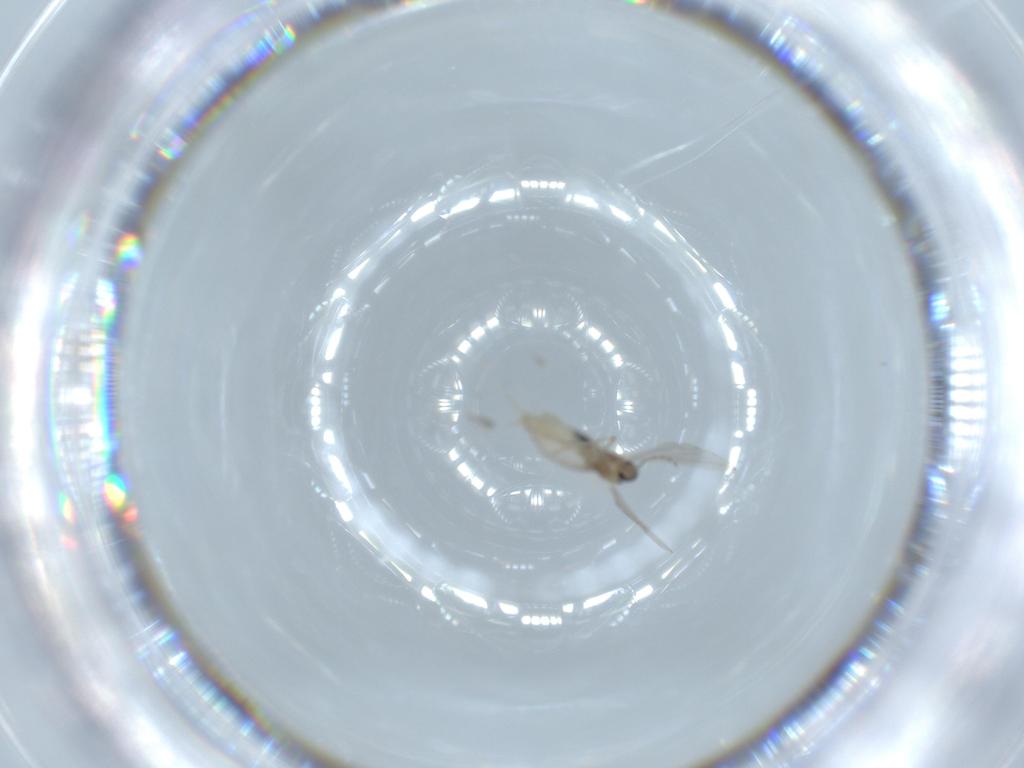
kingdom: Animalia
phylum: Arthropoda
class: Insecta
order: Diptera
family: Cecidomyiidae
